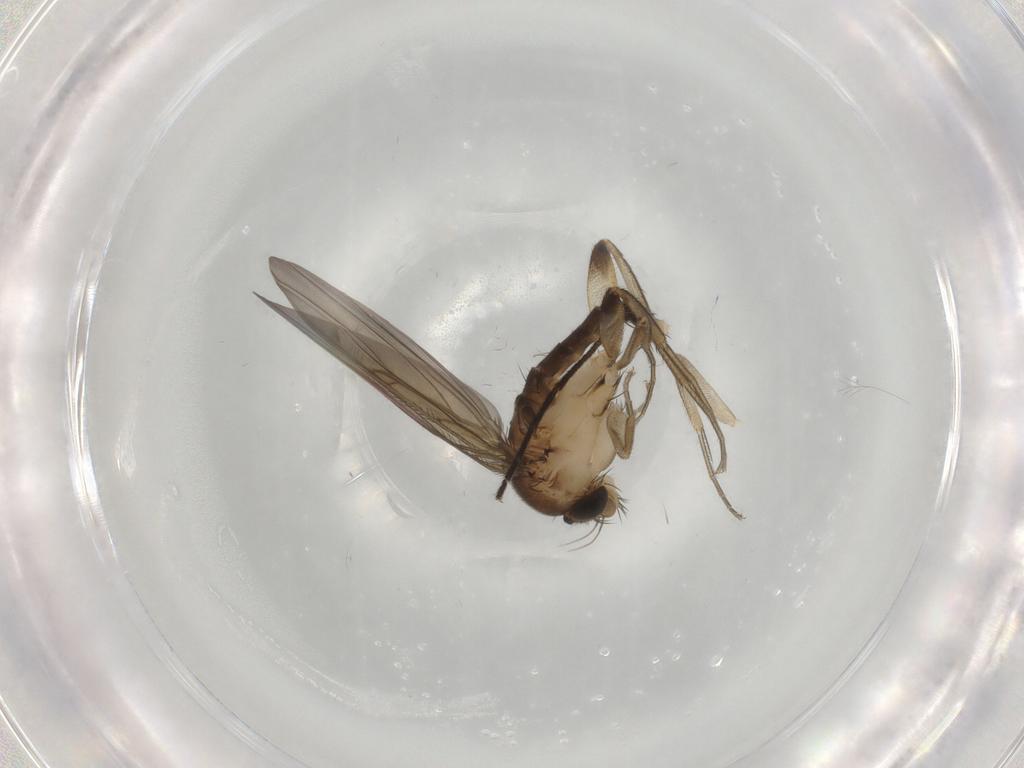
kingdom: Animalia
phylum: Arthropoda
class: Insecta
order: Diptera
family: Phoridae
